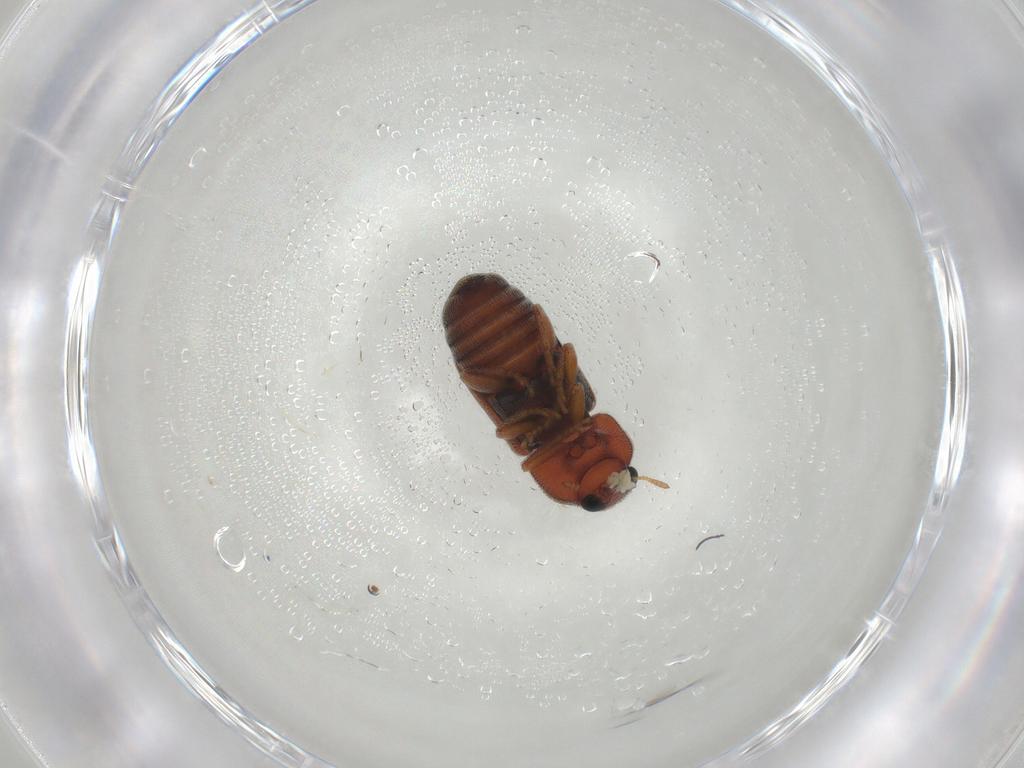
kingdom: Animalia
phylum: Arthropoda
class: Insecta
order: Coleoptera
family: Anthribidae
